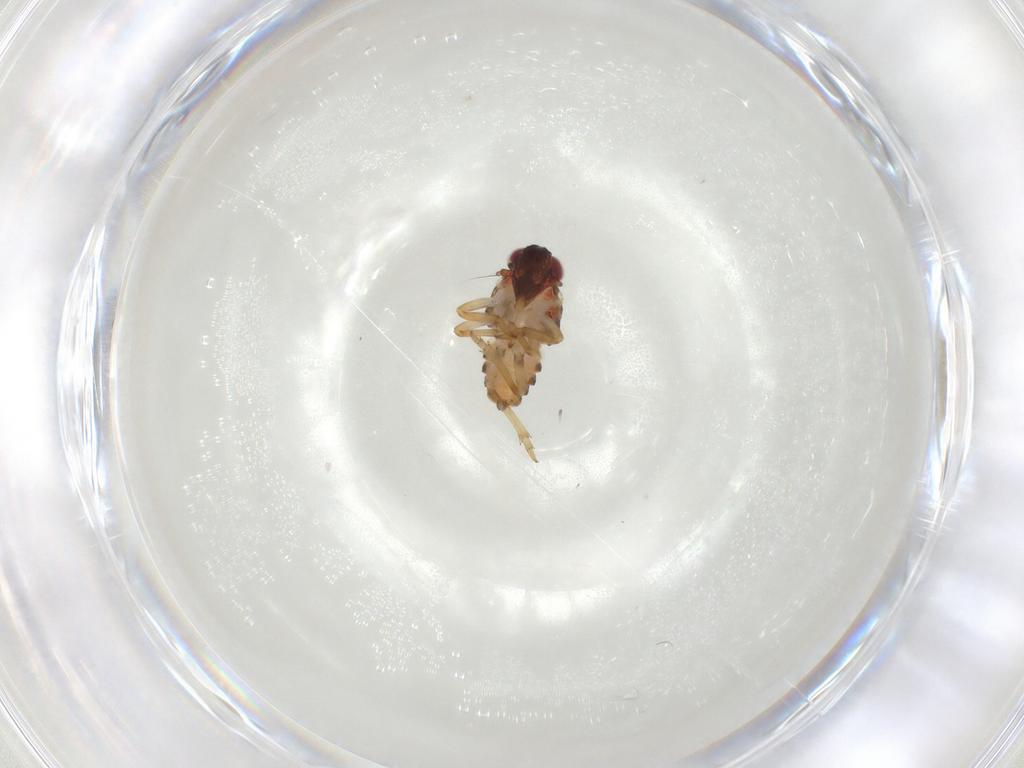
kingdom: Animalia
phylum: Arthropoda
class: Insecta
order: Hemiptera
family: Issidae
